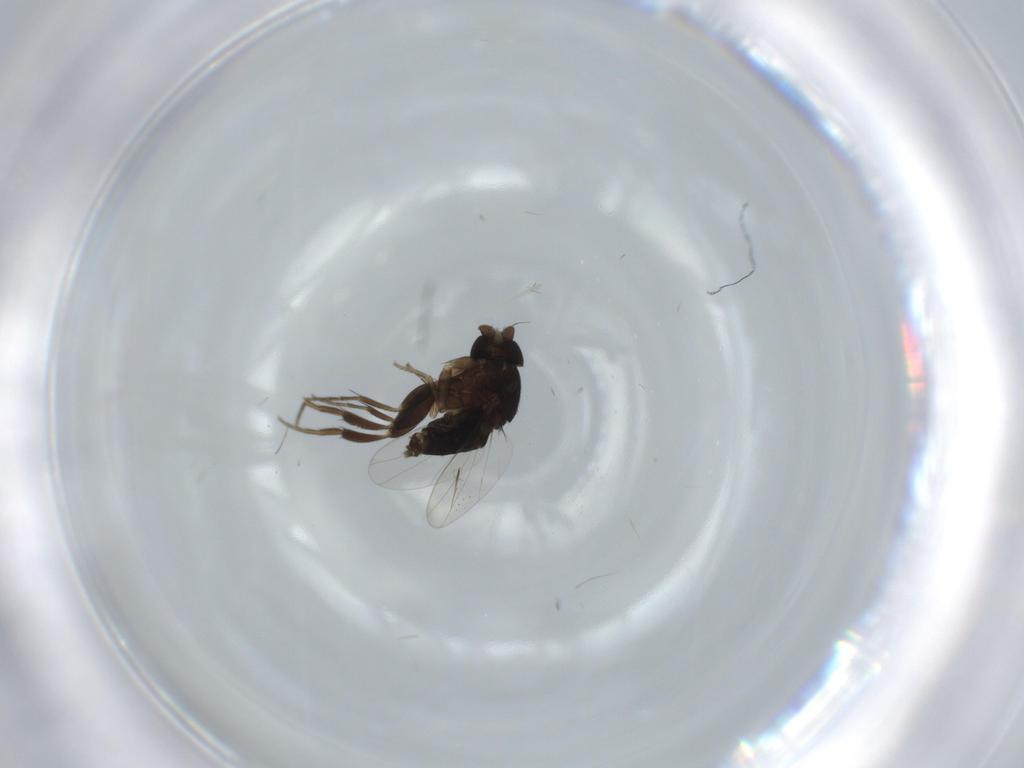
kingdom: Animalia
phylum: Arthropoda
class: Insecta
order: Diptera
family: Phoridae
